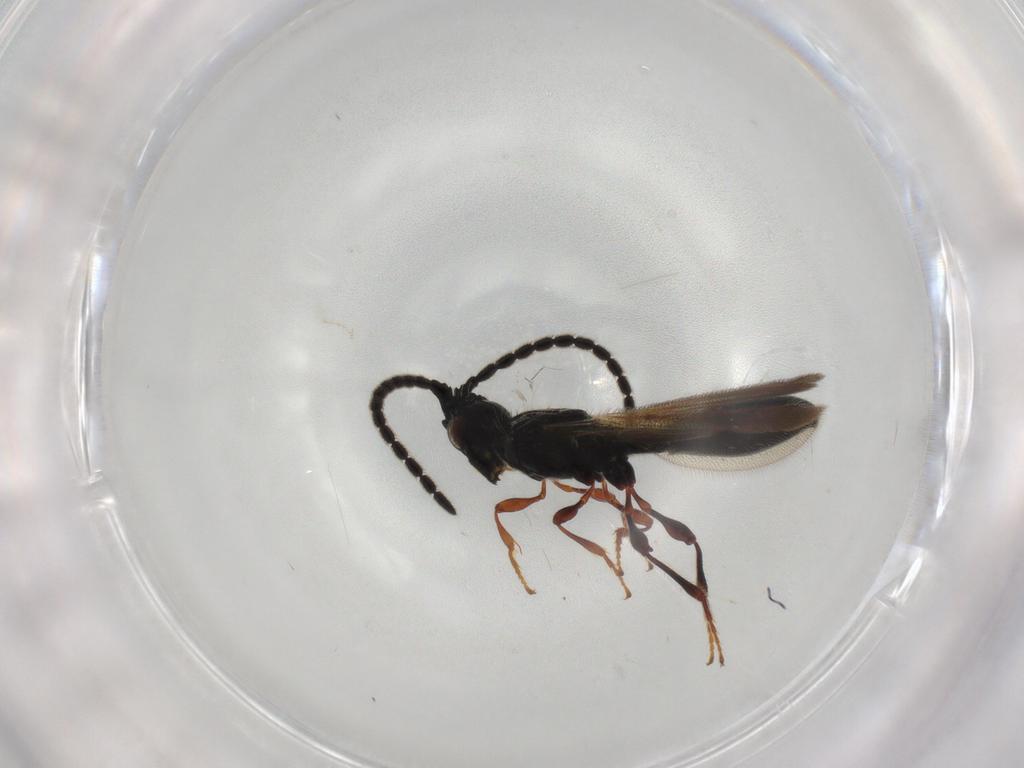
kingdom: Animalia
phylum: Arthropoda
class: Insecta
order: Hymenoptera
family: Diapriidae
